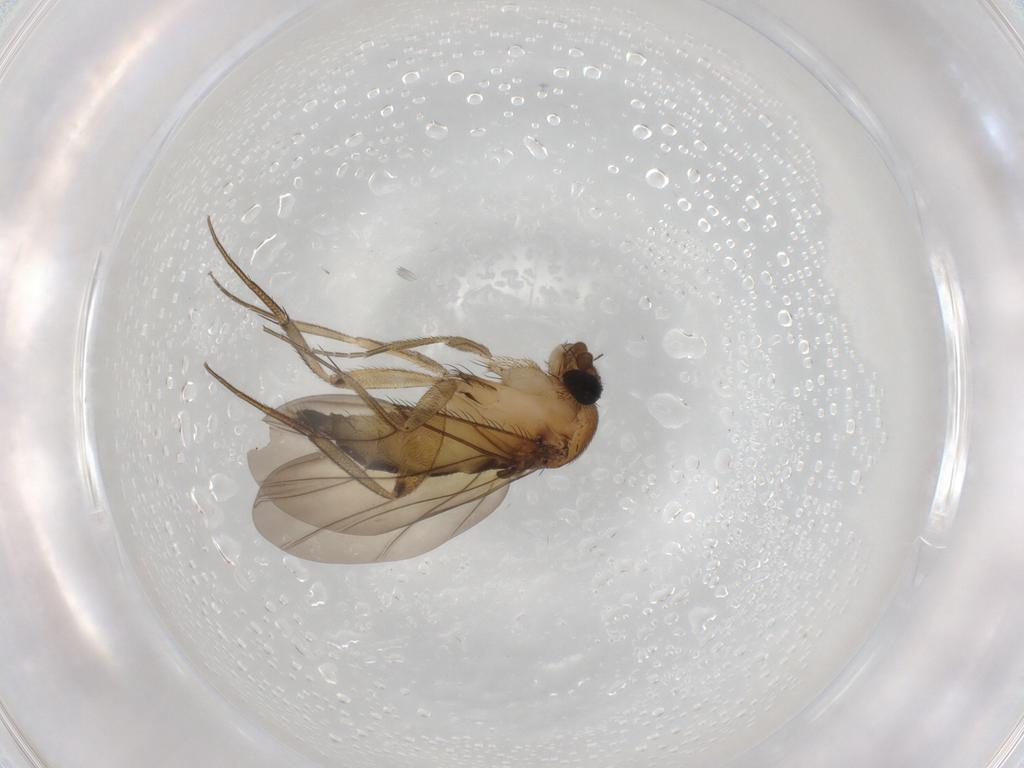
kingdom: Animalia
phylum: Arthropoda
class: Insecta
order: Diptera
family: Phoridae
